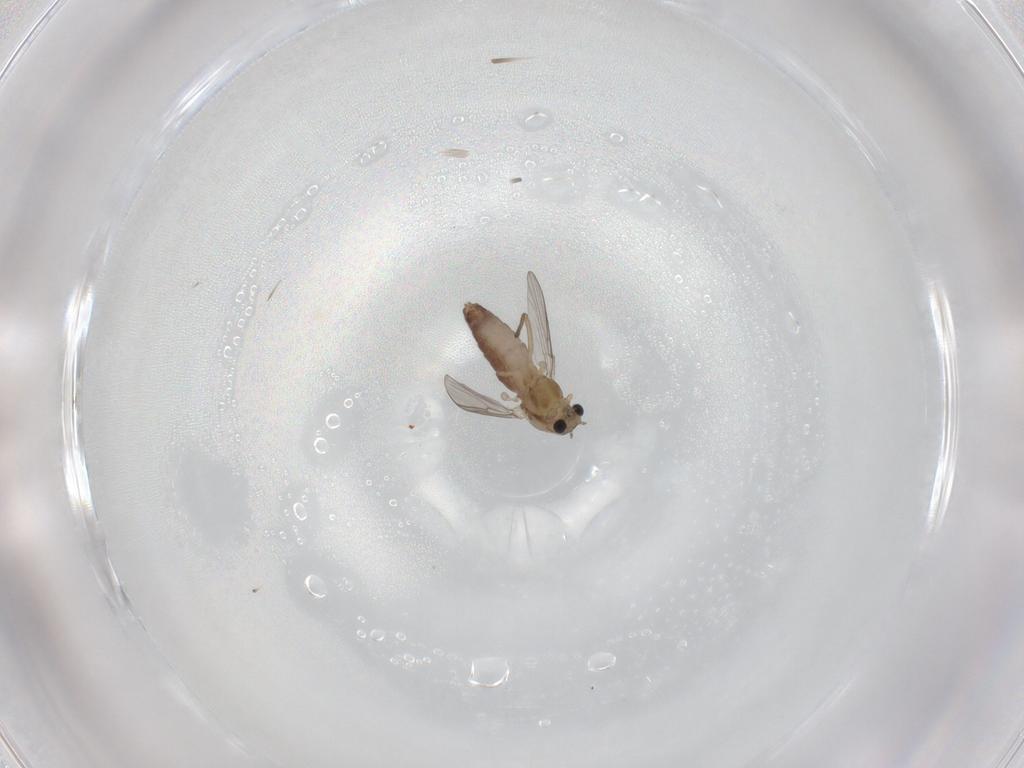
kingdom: Animalia
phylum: Arthropoda
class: Insecta
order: Diptera
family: Chironomidae
